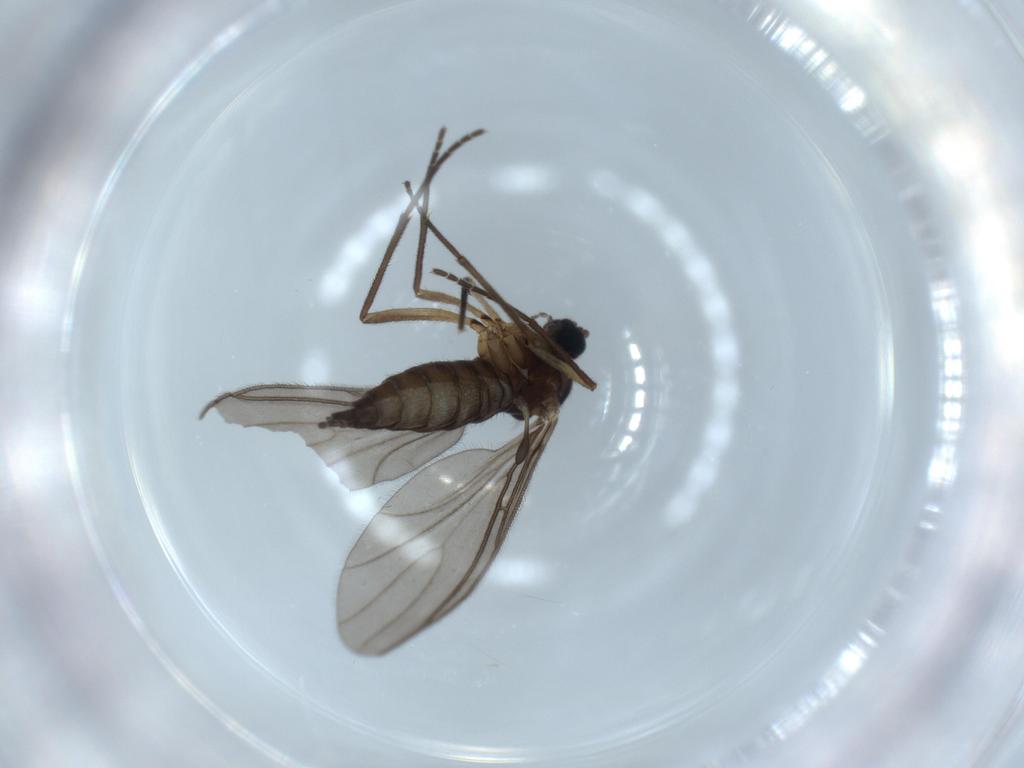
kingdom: Animalia
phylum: Arthropoda
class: Insecta
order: Diptera
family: Sciaridae
